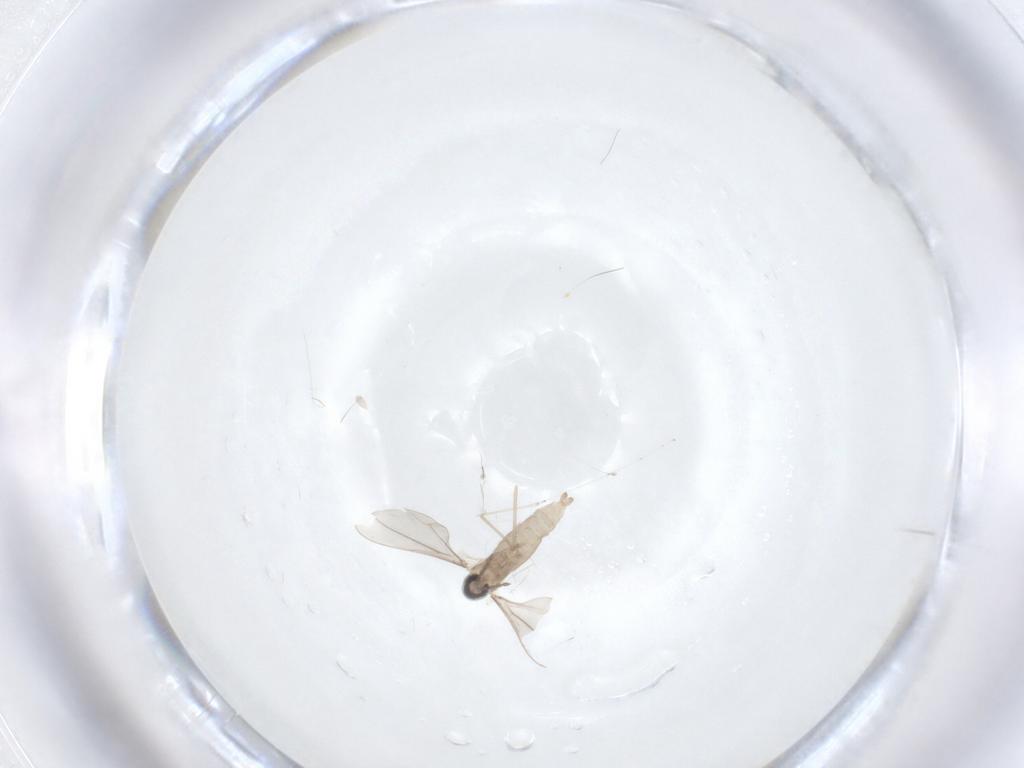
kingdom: Animalia
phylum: Arthropoda
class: Insecta
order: Diptera
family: Cecidomyiidae
